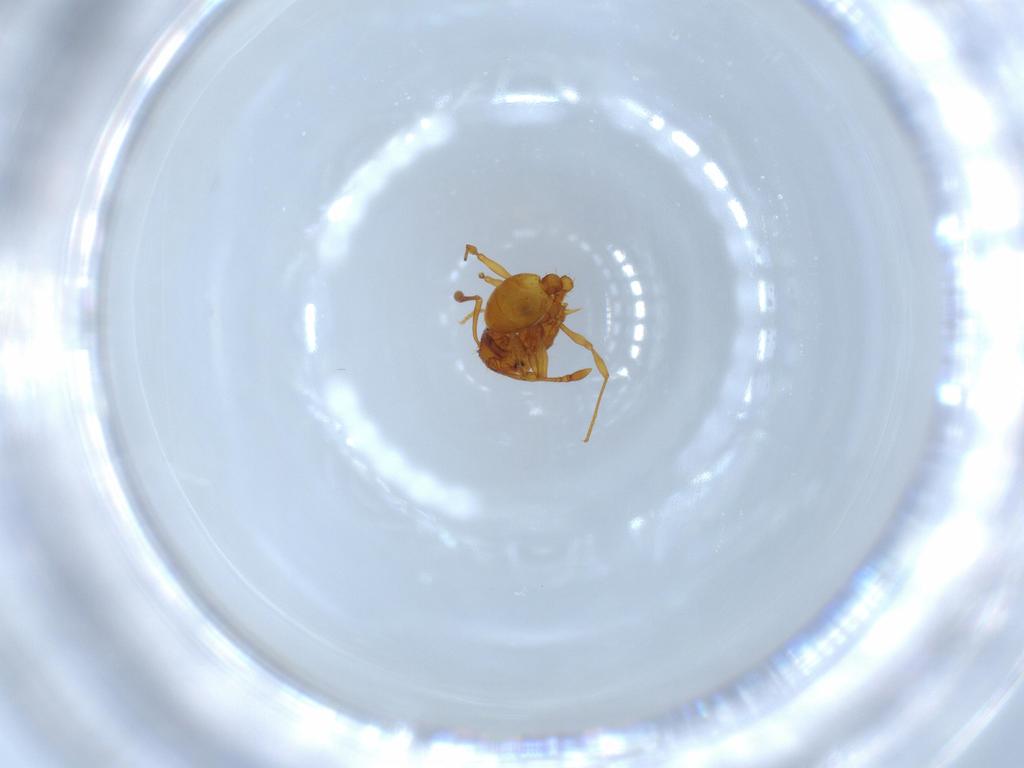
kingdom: Animalia
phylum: Arthropoda
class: Insecta
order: Hymenoptera
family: Formicidae
